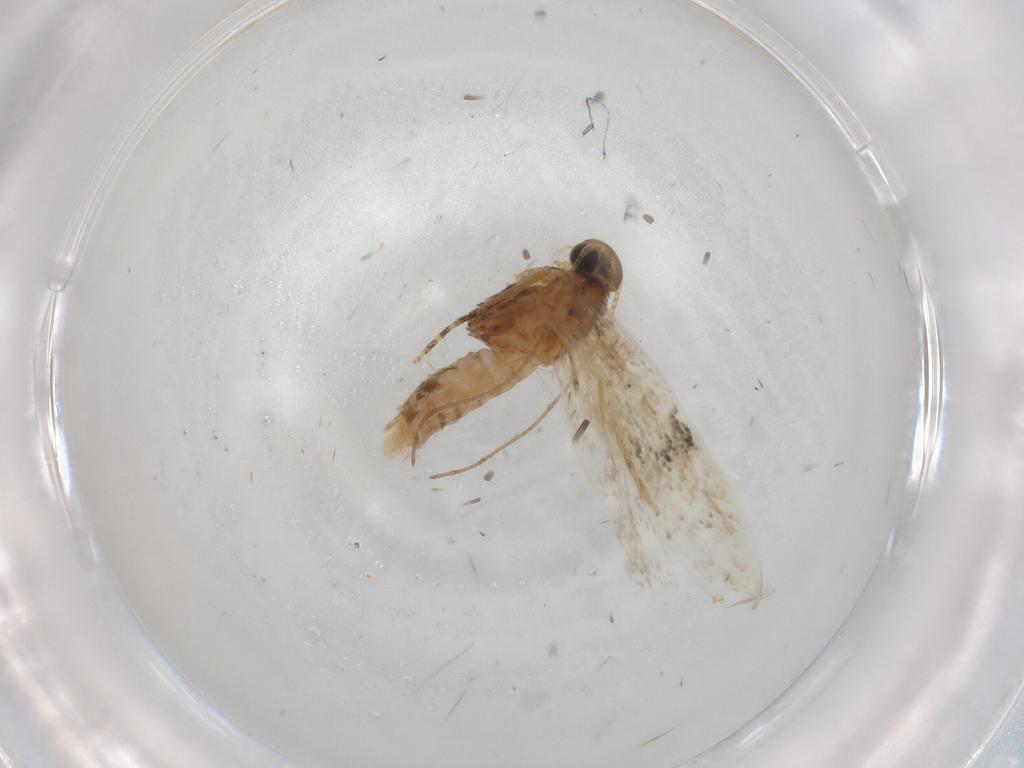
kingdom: Animalia
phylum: Arthropoda
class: Insecta
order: Lepidoptera
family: Gelechiidae
